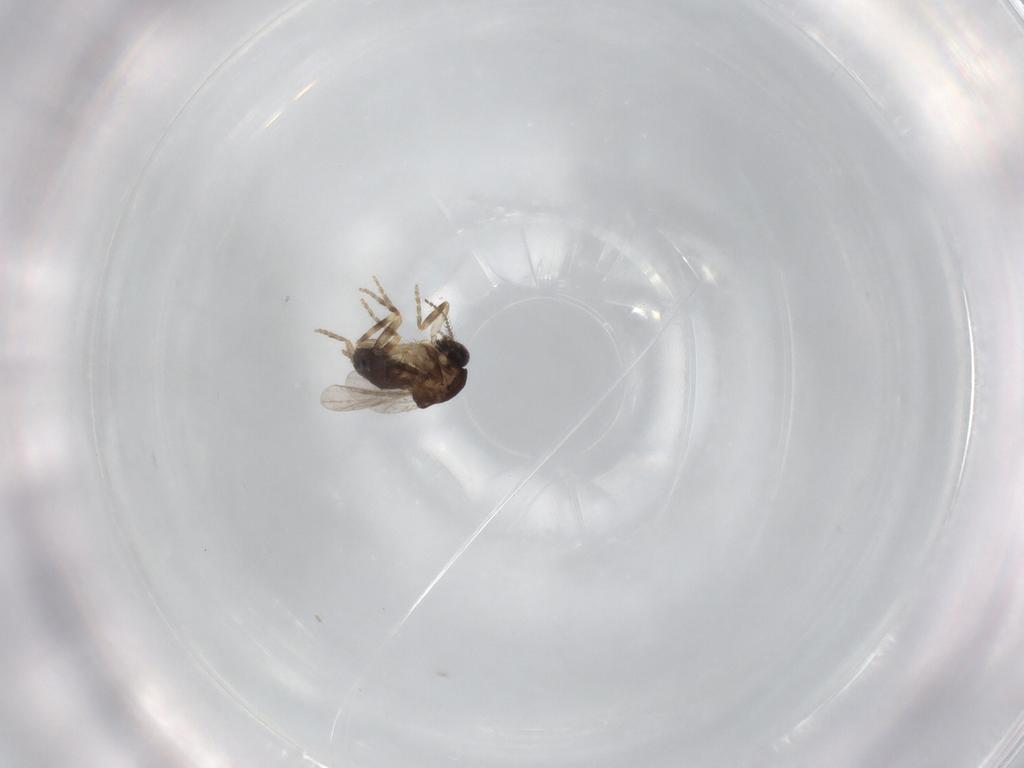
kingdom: Animalia
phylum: Arthropoda
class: Insecta
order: Diptera
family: Ceratopogonidae
